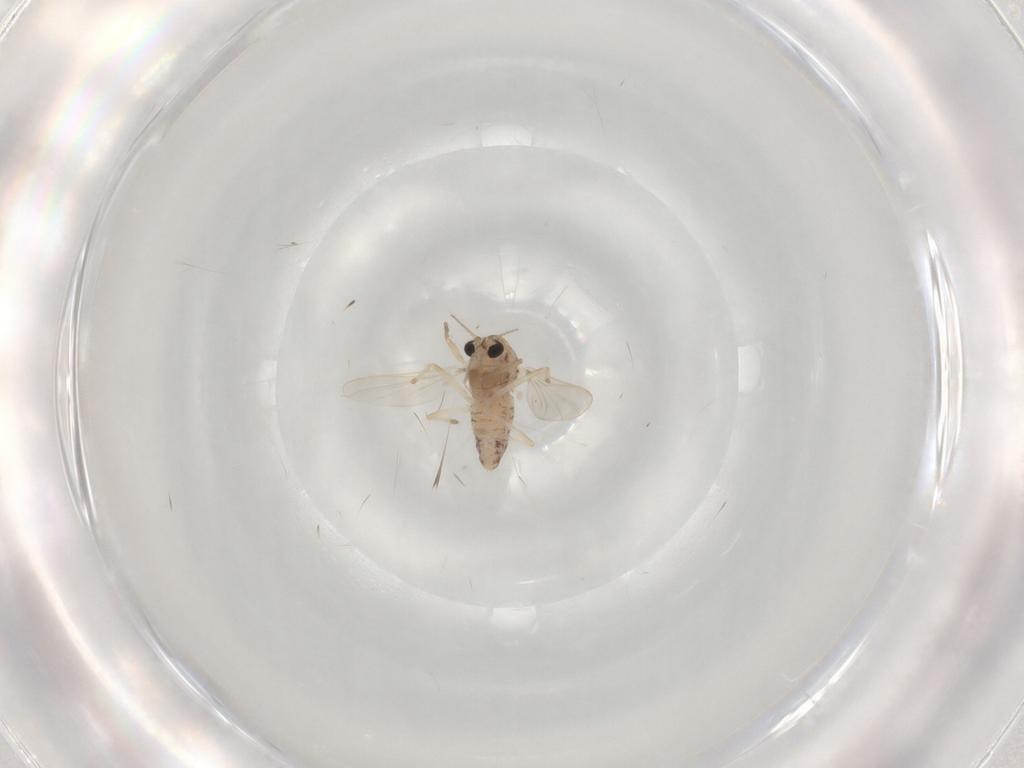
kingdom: Animalia
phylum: Arthropoda
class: Insecta
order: Diptera
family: Chironomidae
